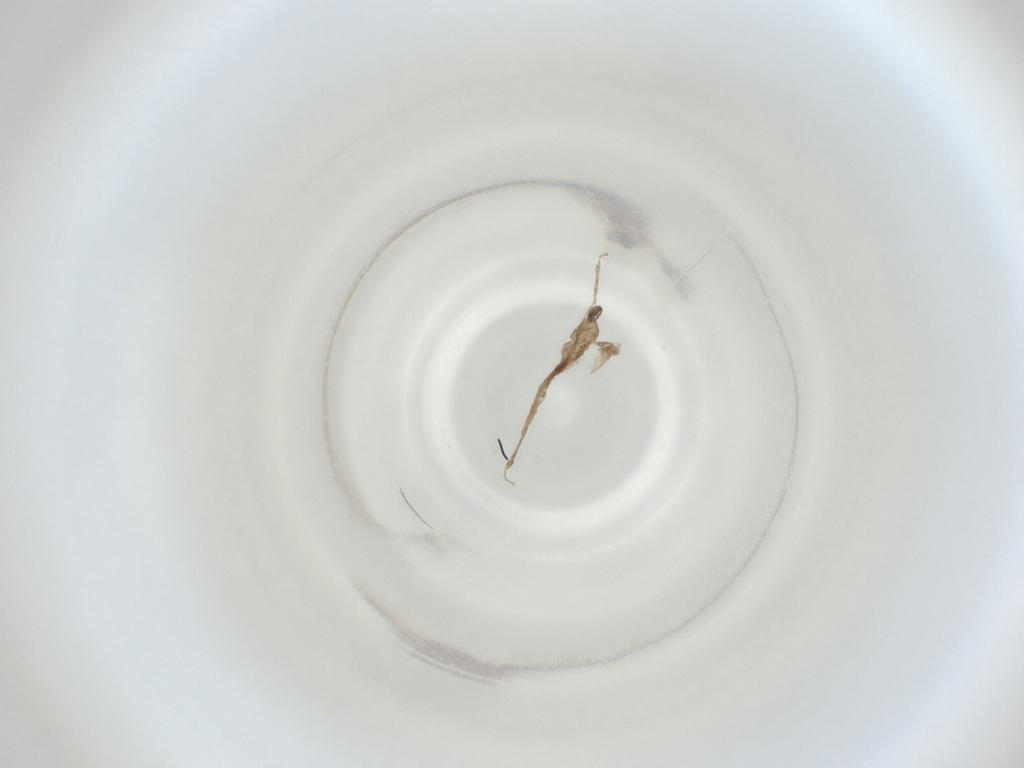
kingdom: Animalia
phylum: Arthropoda
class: Insecta
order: Diptera
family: Cecidomyiidae
